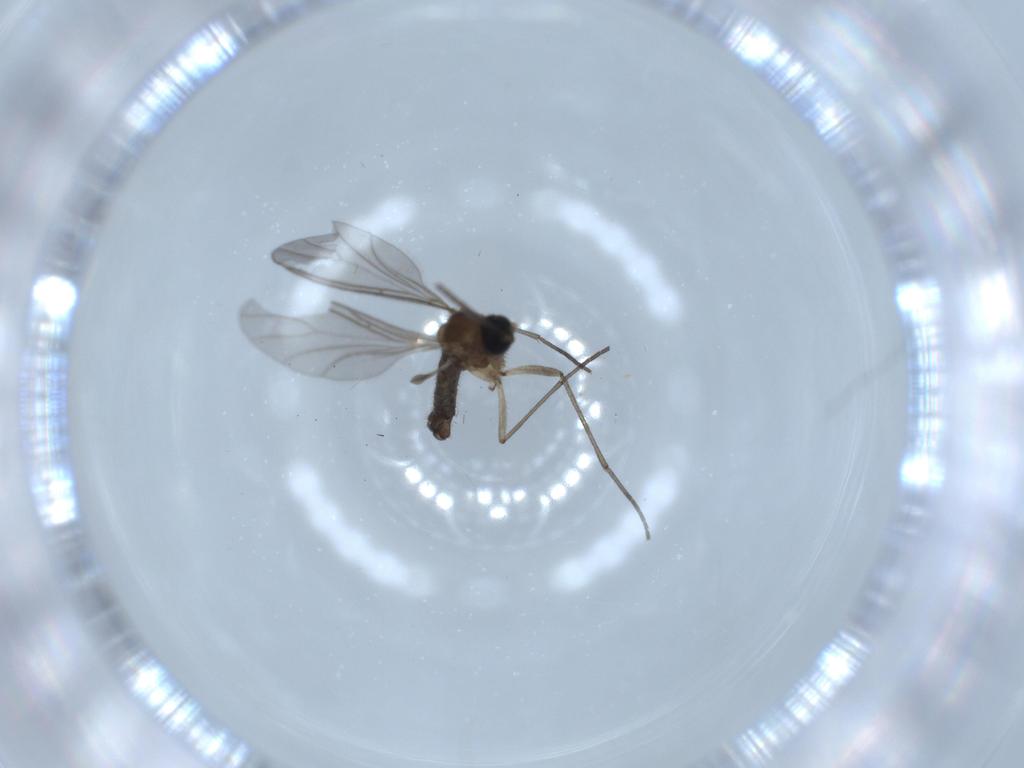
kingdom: Animalia
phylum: Arthropoda
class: Insecta
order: Diptera
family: Sciaridae
